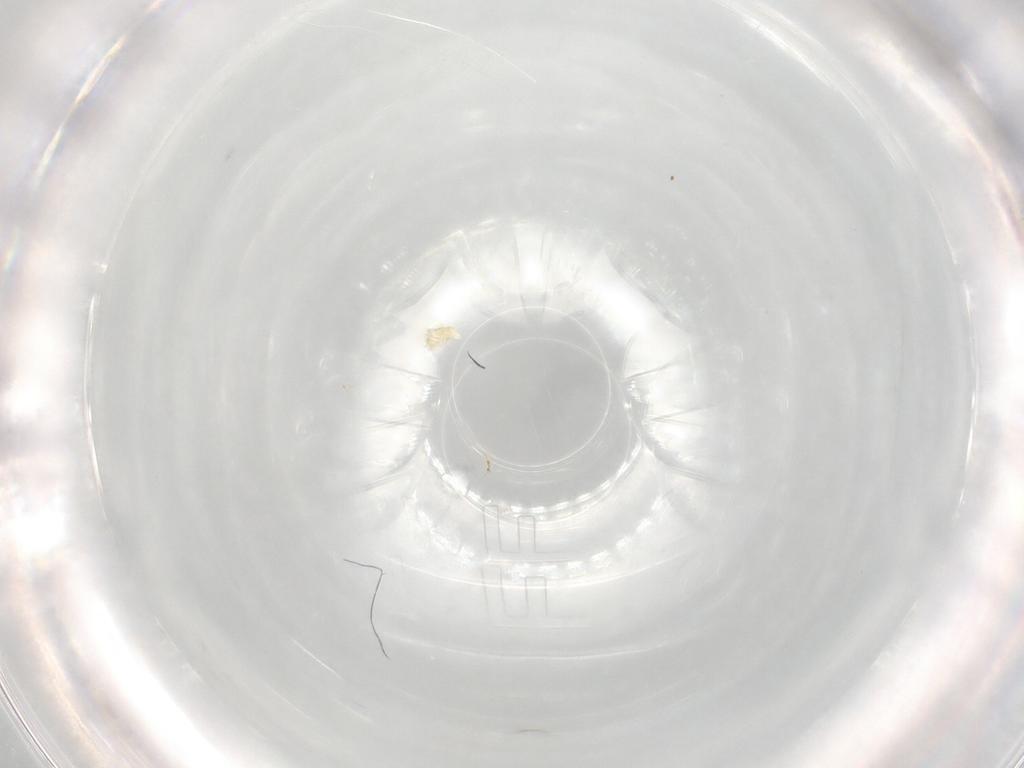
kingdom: Animalia
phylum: Arthropoda
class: Arachnida
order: Trombidiformes
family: Eupodidae
